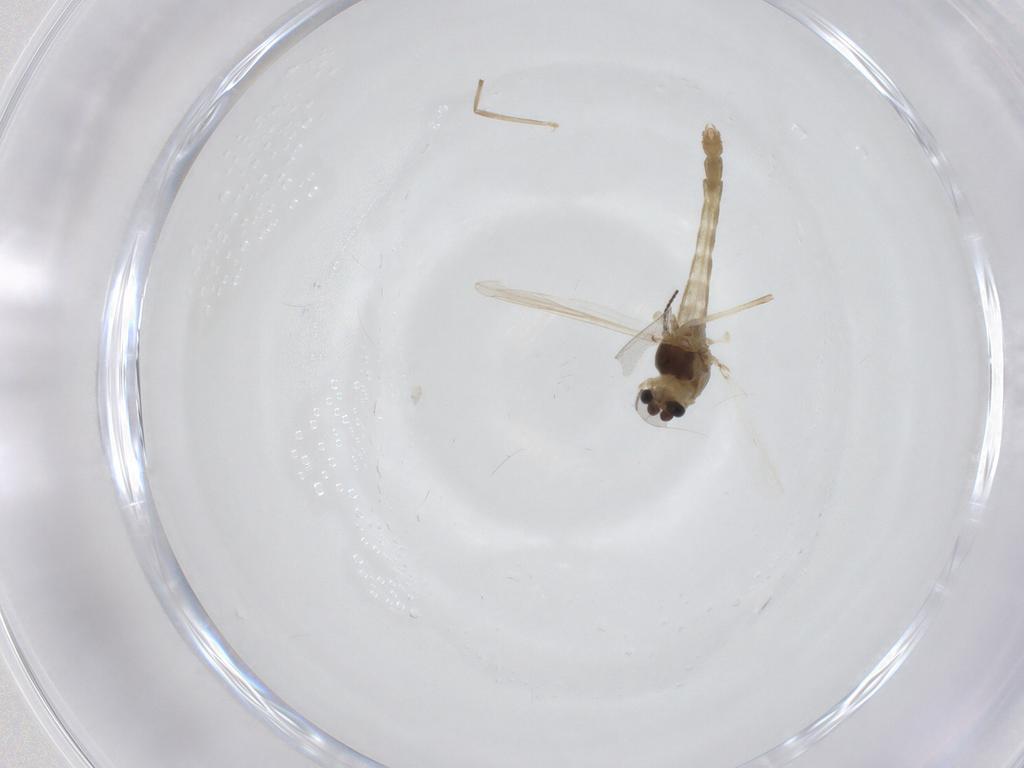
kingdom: Animalia
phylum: Arthropoda
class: Insecta
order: Diptera
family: Chironomidae
